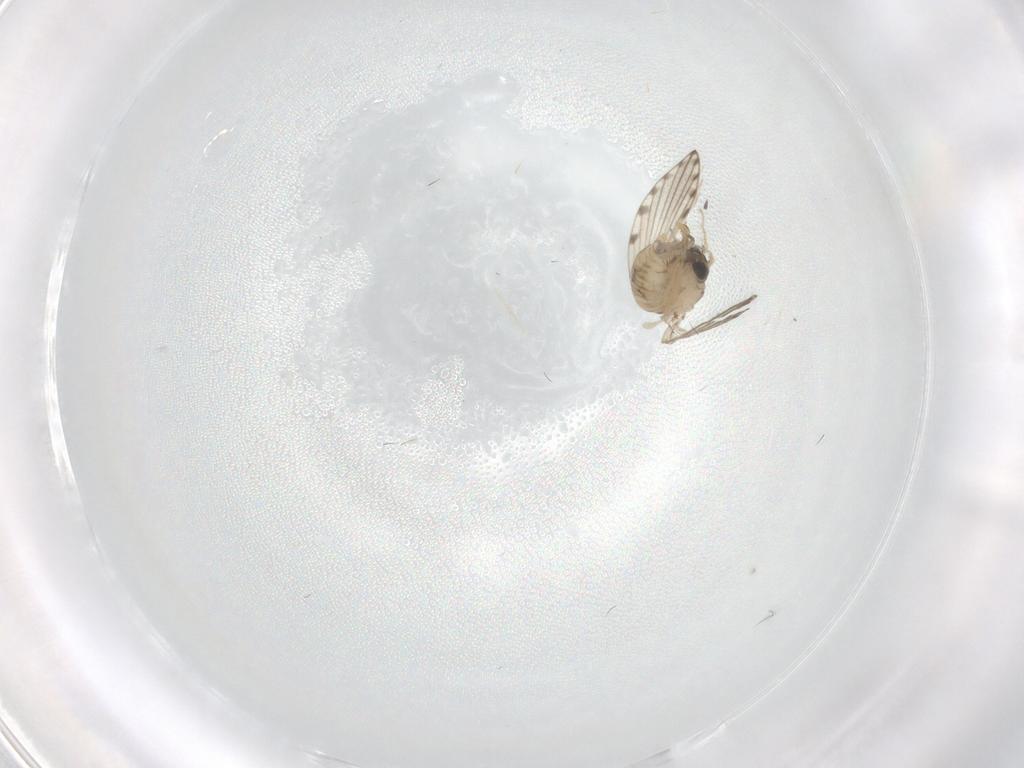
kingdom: Animalia
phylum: Arthropoda
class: Insecta
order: Diptera
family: Psychodidae
